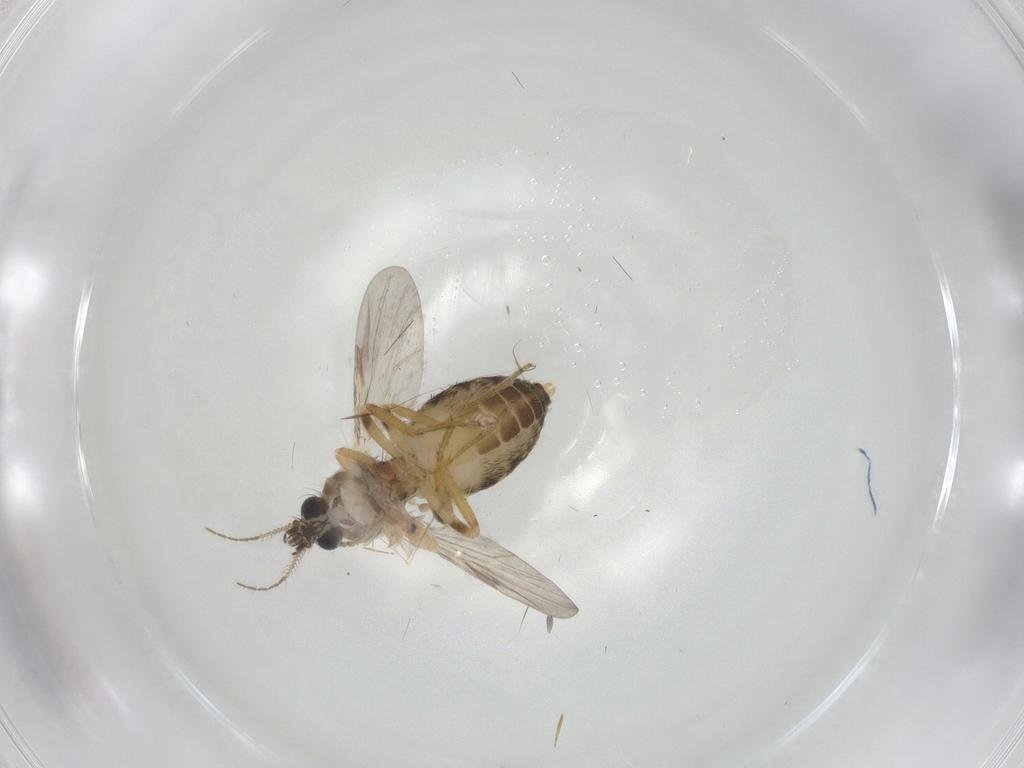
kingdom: Animalia
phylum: Arthropoda
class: Insecta
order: Diptera
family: Ceratopogonidae
